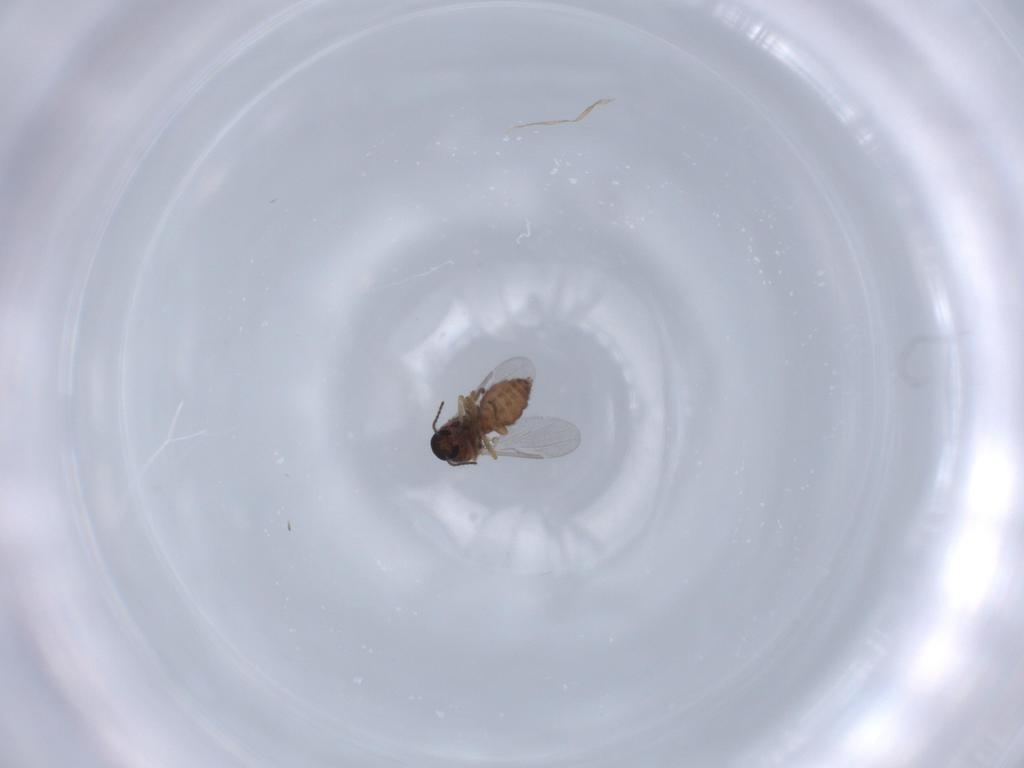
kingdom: Animalia
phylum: Arthropoda
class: Insecta
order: Diptera
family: Ceratopogonidae
